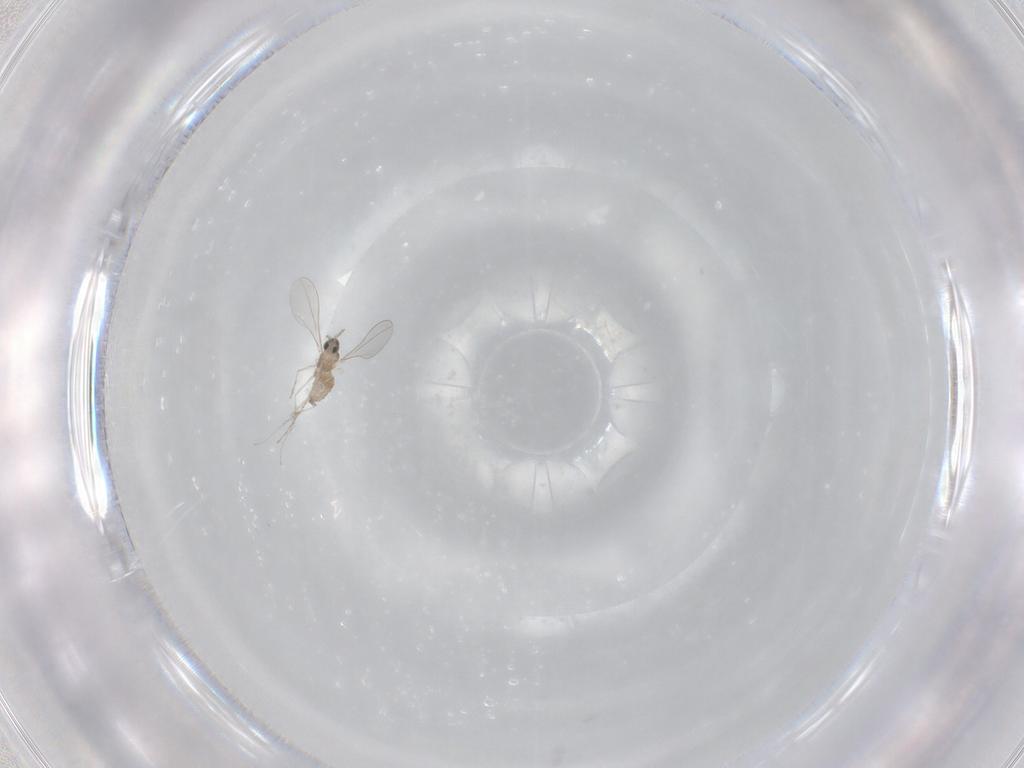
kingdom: Animalia
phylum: Arthropoda
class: Insecta
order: Diptera
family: Cecidomyiidae
